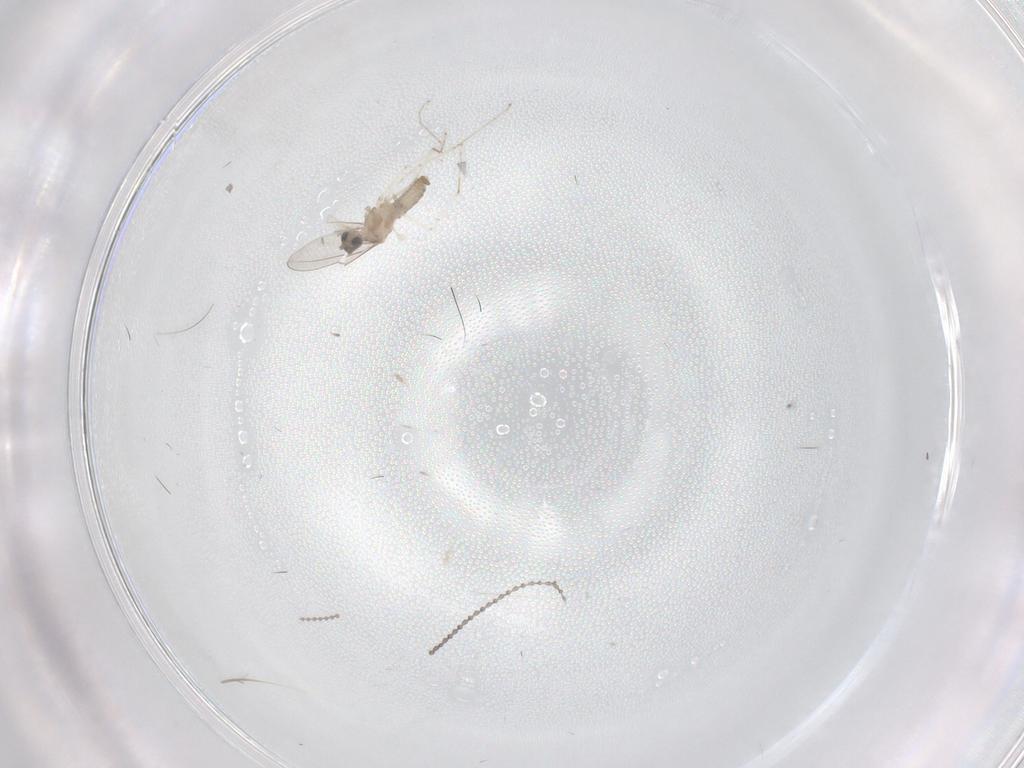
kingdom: Animalia
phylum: Arthropoda
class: Insecta
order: Diptera
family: Cecidomyiidae
